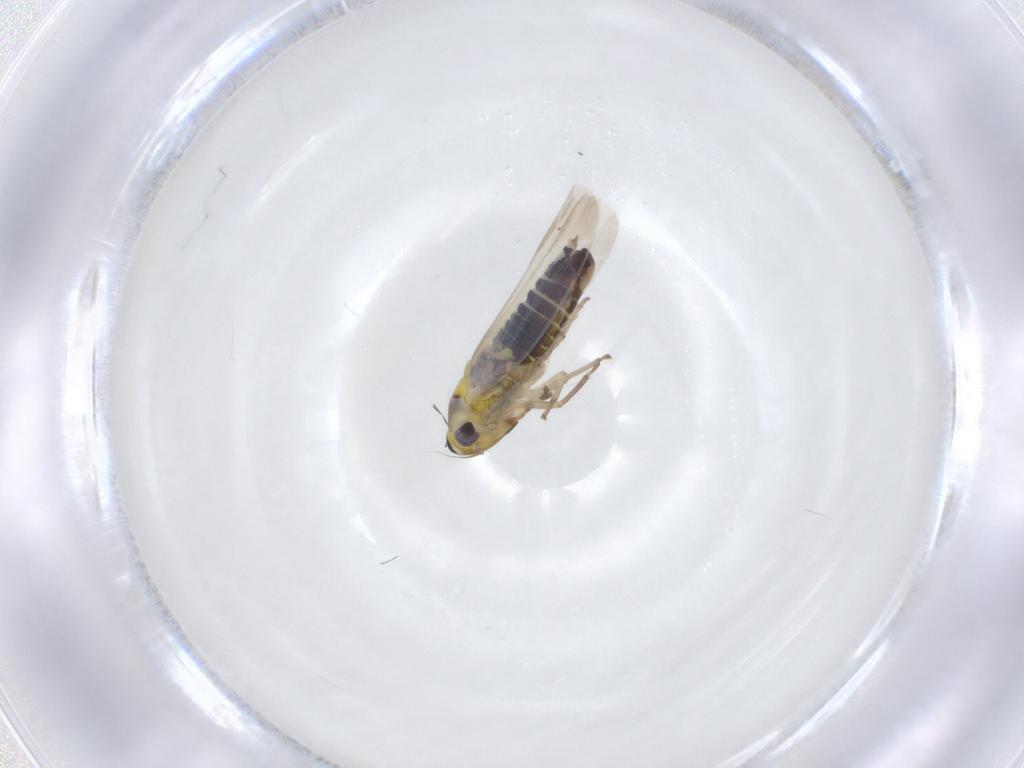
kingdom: Animalia
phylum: Arthropoda
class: Insecta
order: Hemiptera
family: Cicadellidae
